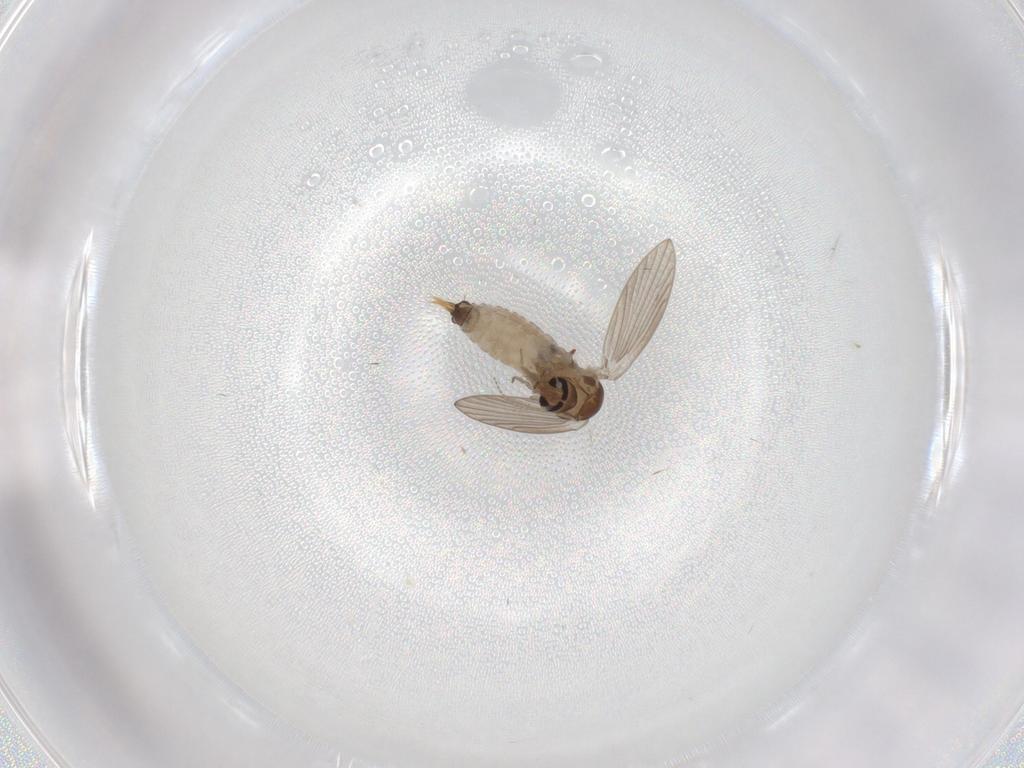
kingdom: Animalia
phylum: Arthropoda
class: Insecta
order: Diptera
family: Psychodidae
